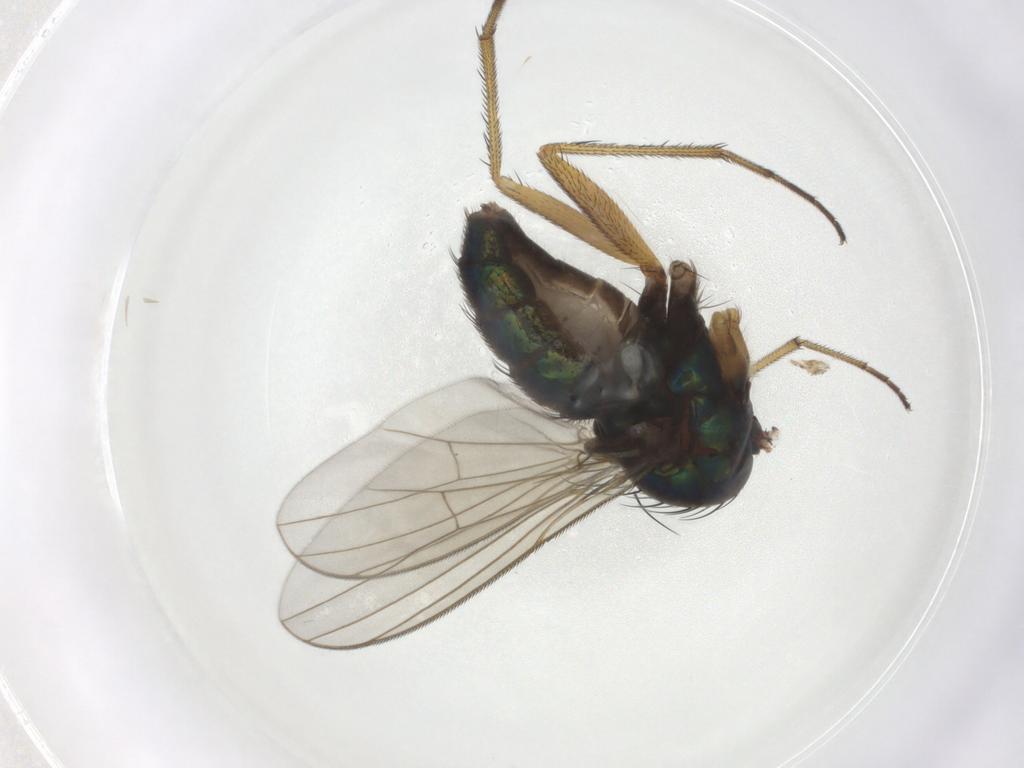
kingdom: Animalia
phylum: Arthropoda
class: Insecta
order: Diptera
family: Dolichopodidae
